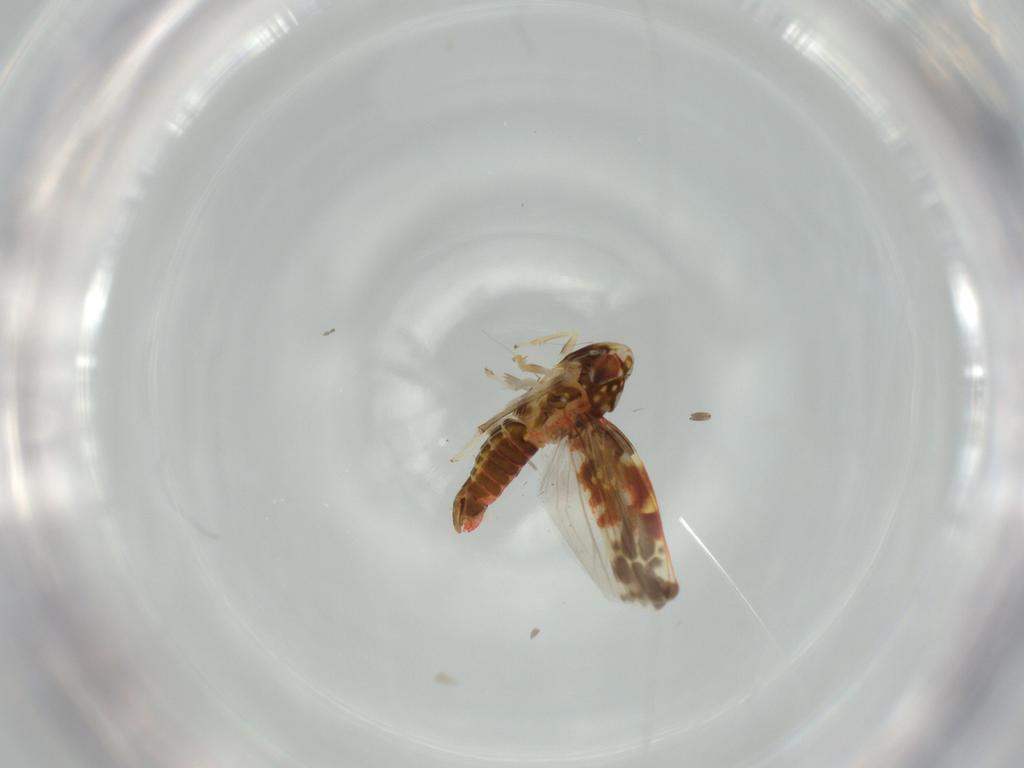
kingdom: Animalia
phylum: Arthropoda
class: Insecta
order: Hemiptera
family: Cicadellidae
